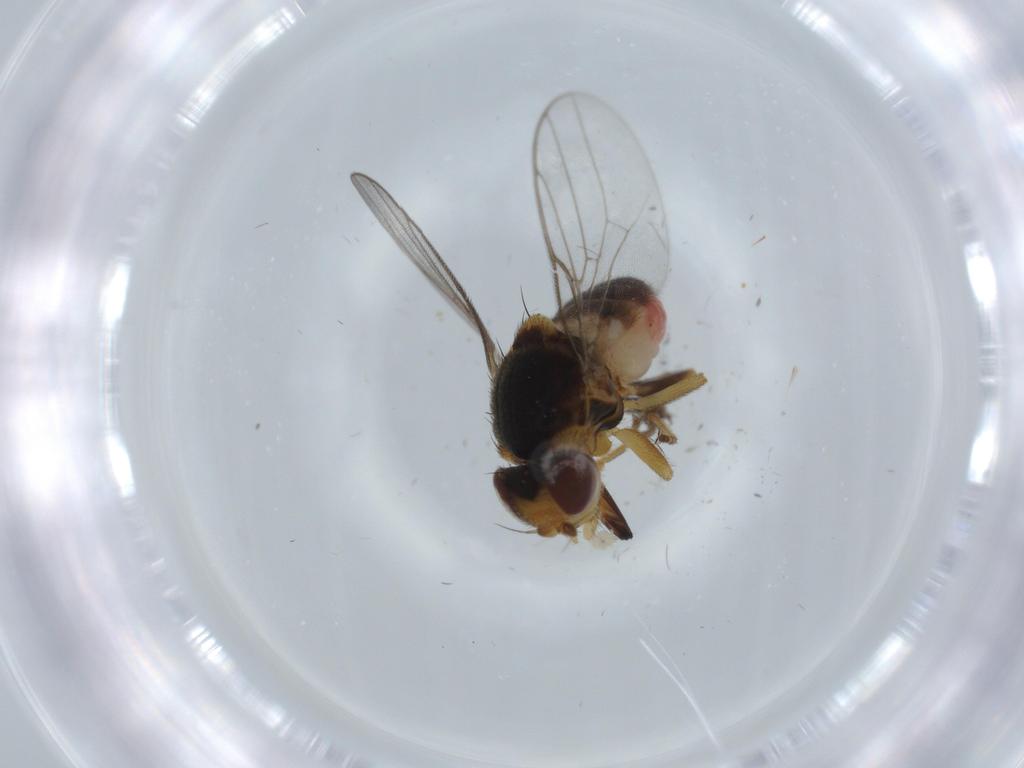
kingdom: Animalia
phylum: Arthropoda
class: Insecta
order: Diptera
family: Chloropidae
